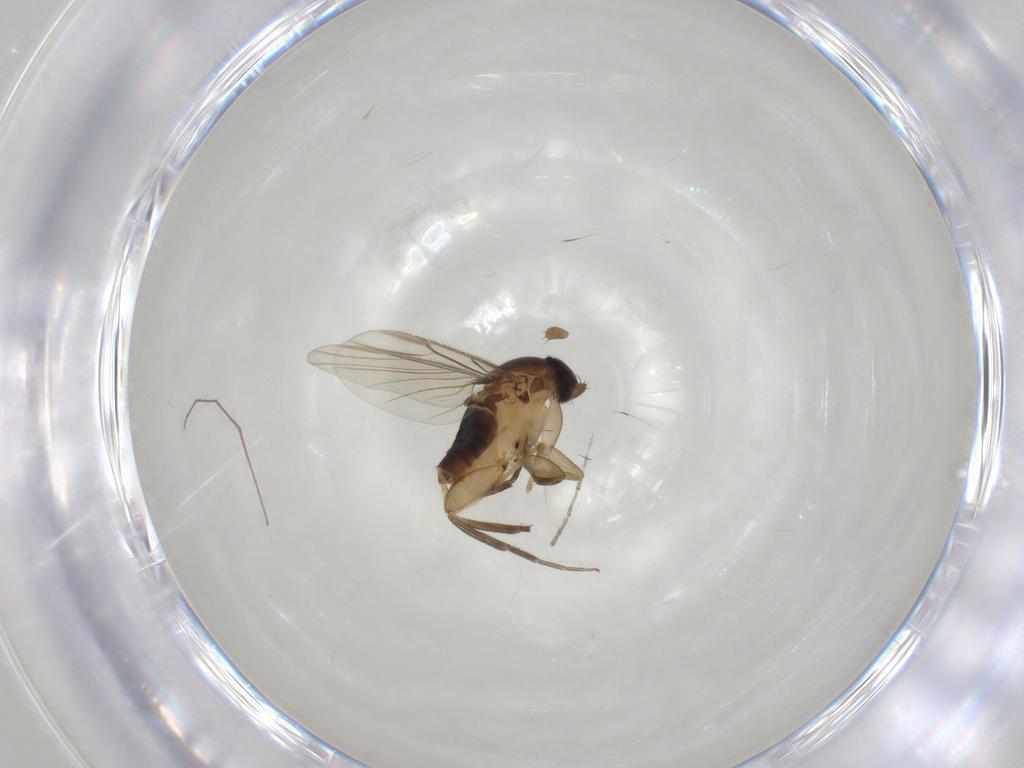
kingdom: Animalia
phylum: Arthropoda
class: Insecta
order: Diptera
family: Phoridae
